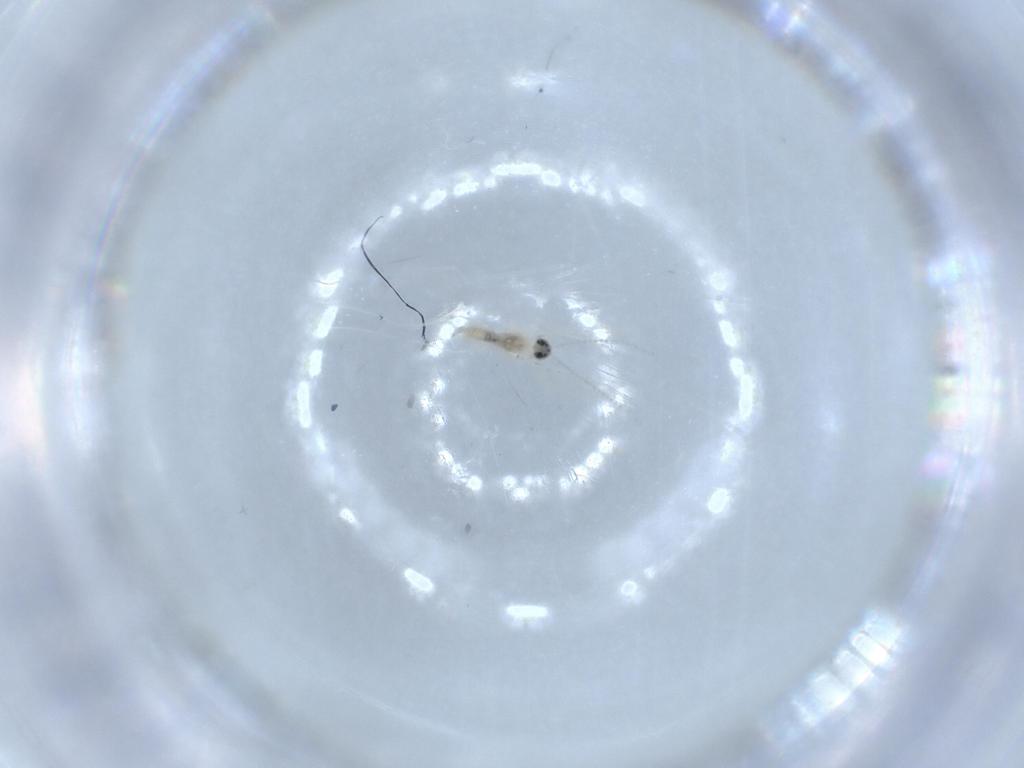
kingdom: Animalia
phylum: Arthropoda
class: Insecta
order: Diptera
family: Cecidomyiidae
